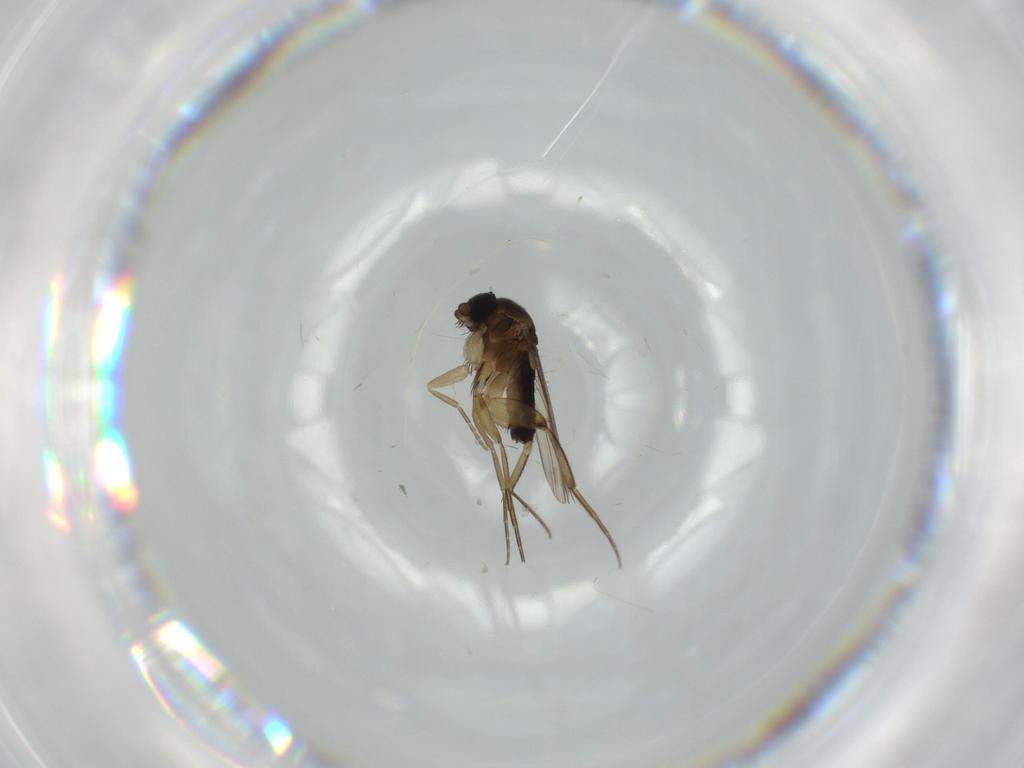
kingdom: Animalia
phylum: Arthropoda
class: Insecta
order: Diptera
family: Phoridae
